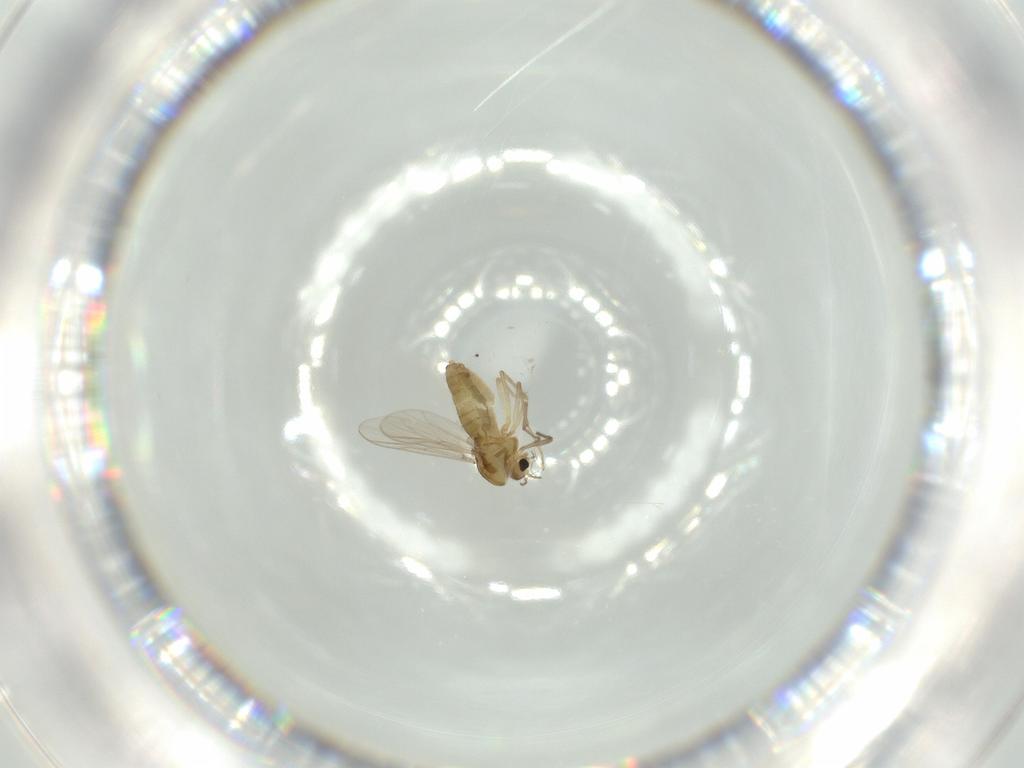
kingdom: Animalia
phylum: Arthropoda
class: Insecta
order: Diptera
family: Chironomidae
